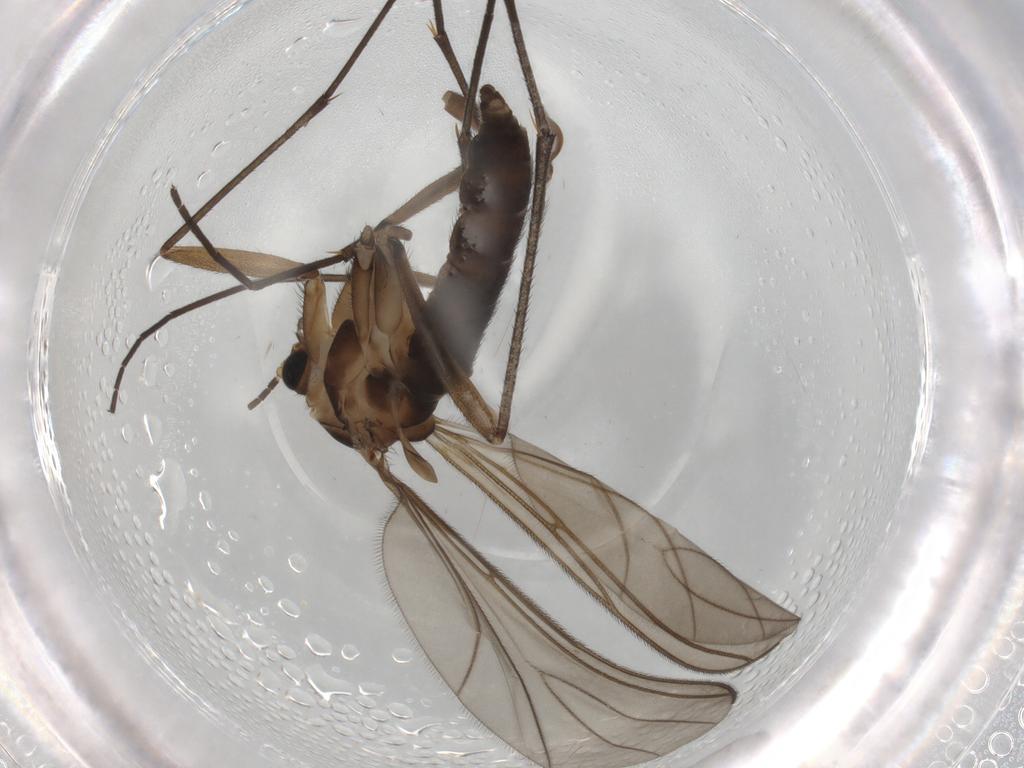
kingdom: Animalia
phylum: Arthropoda
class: Insecta
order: Diptera
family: Sciaridae
